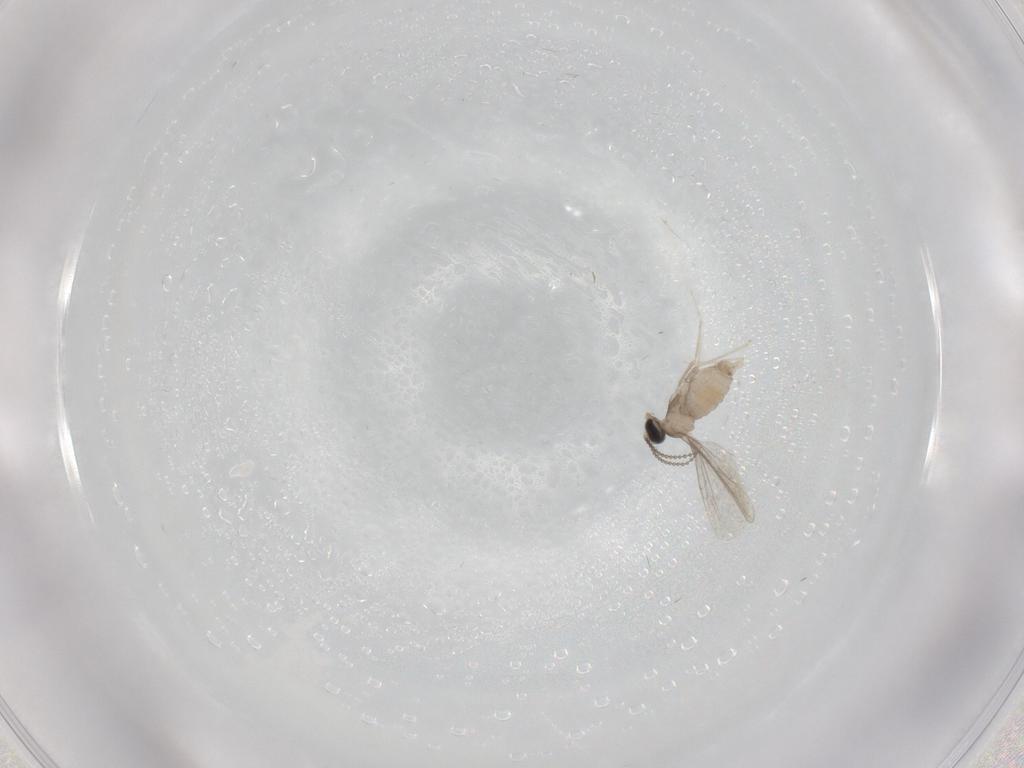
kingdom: Animalia
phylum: Arthropoda
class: Insecta
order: Diptera
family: Cecidomyiidae
